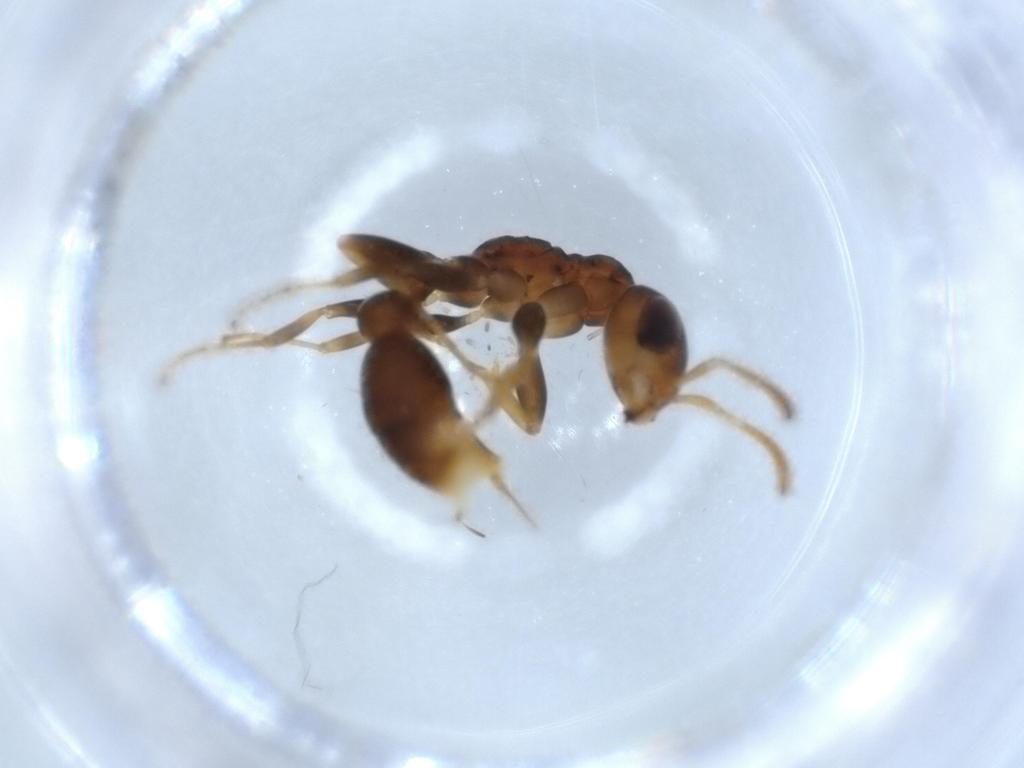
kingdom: Animalia
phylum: Arthropoda
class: Insecta
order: Hymenoptera
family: Formicidae
